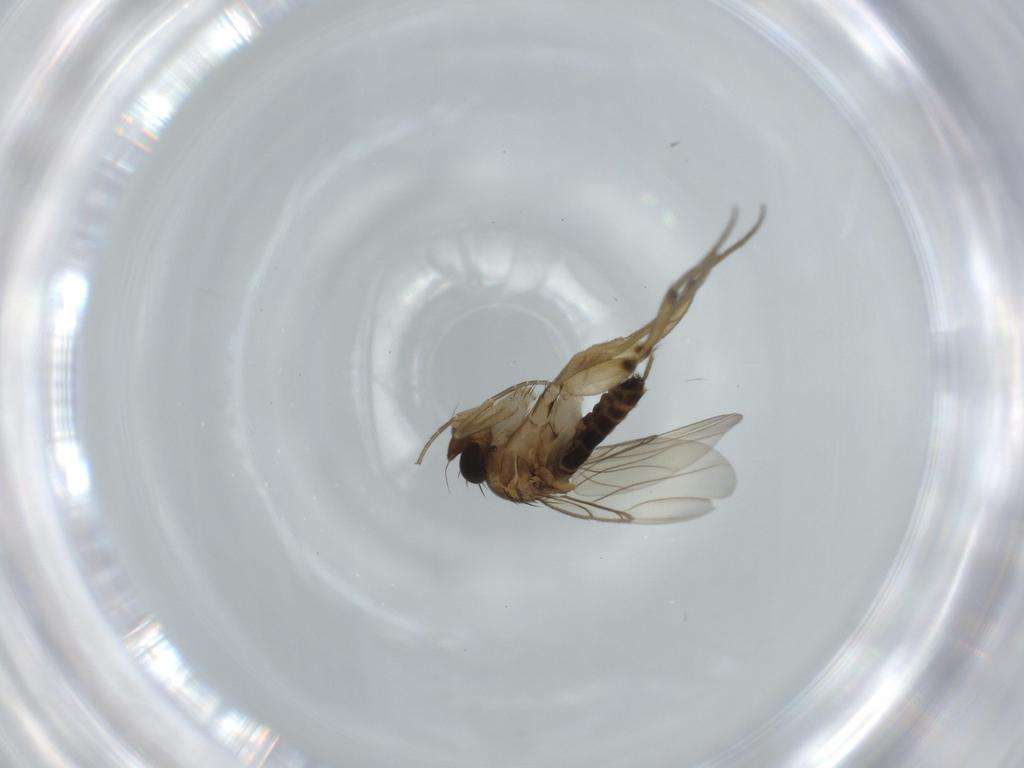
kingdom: Animalia
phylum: Arthropoda
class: Insecta
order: Diptera
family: Phoridae
